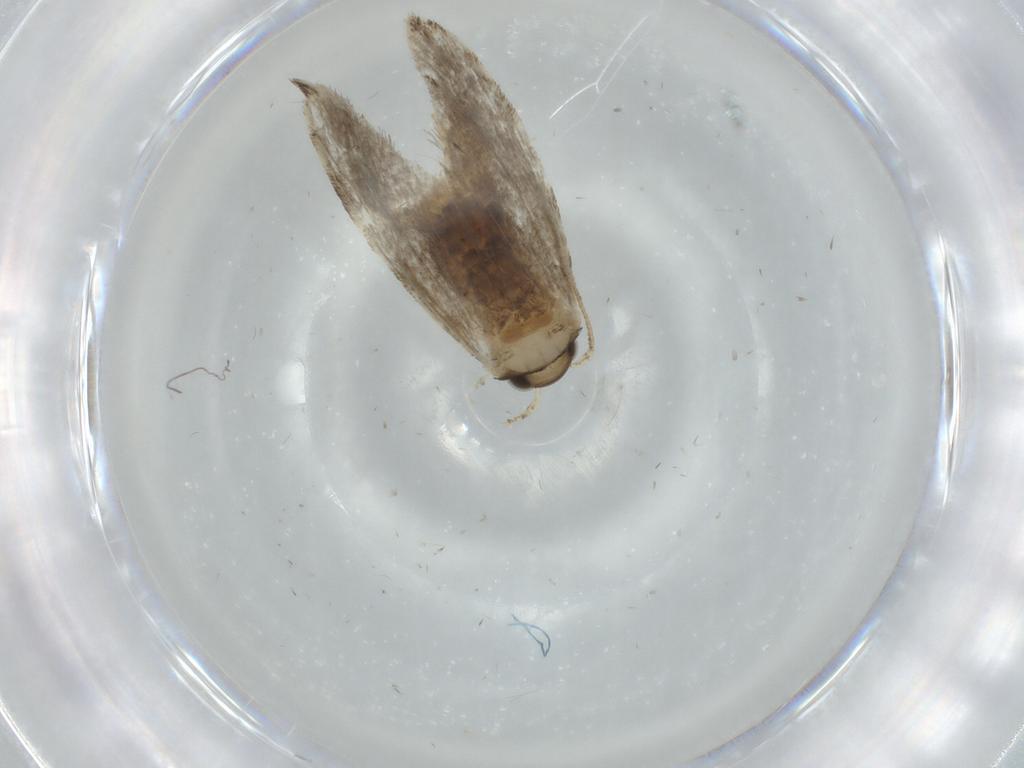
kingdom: Animalia
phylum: Arthropoda
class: Insecta
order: Lepidoptera
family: Tineidae
